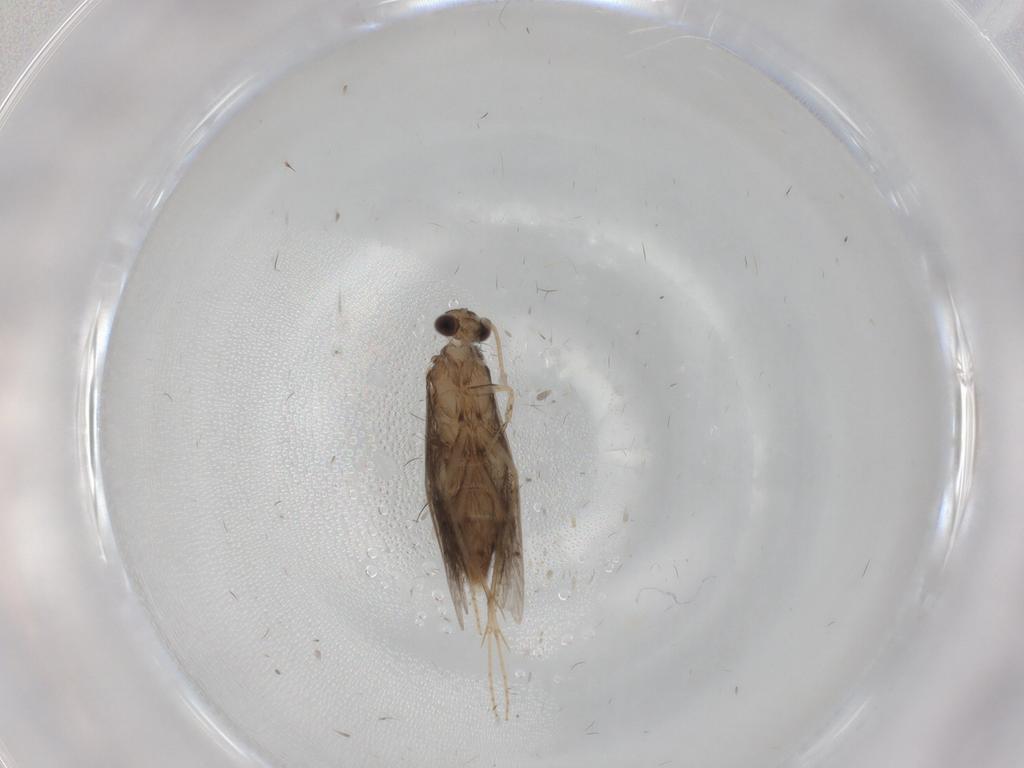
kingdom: Animalia
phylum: Arthropoda
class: Insecta
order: Trichoptera
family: Hydroptilidae
